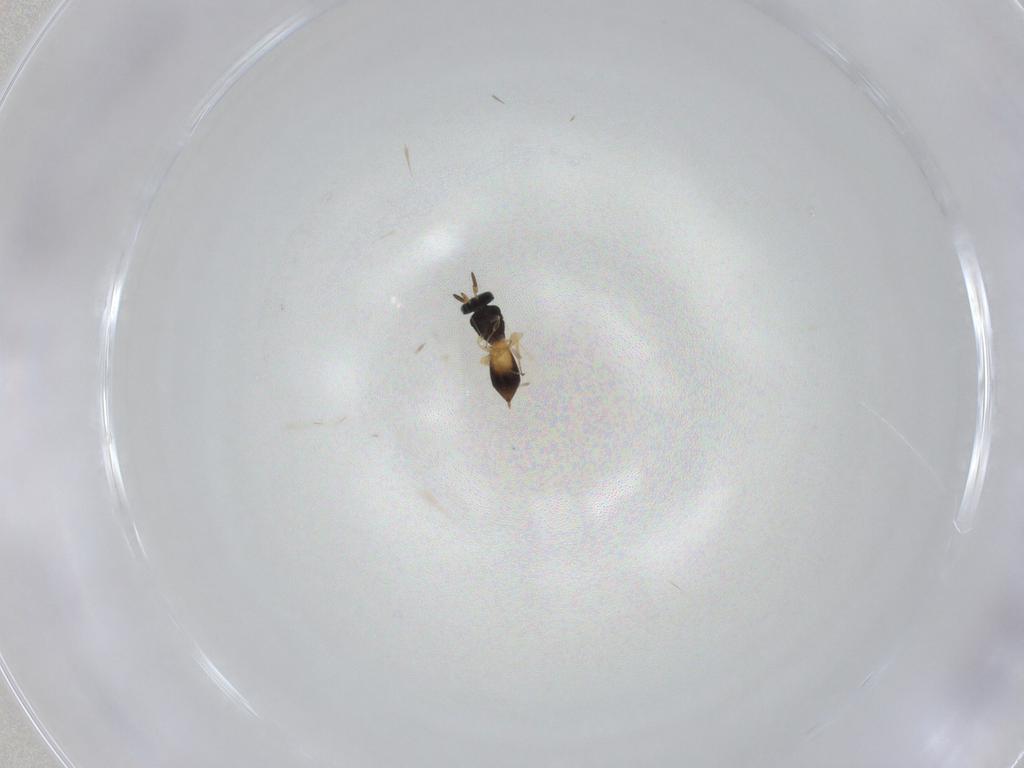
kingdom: Animalia
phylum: Arthropoda
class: Insecta
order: Hymenoptera
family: Scelionidae
